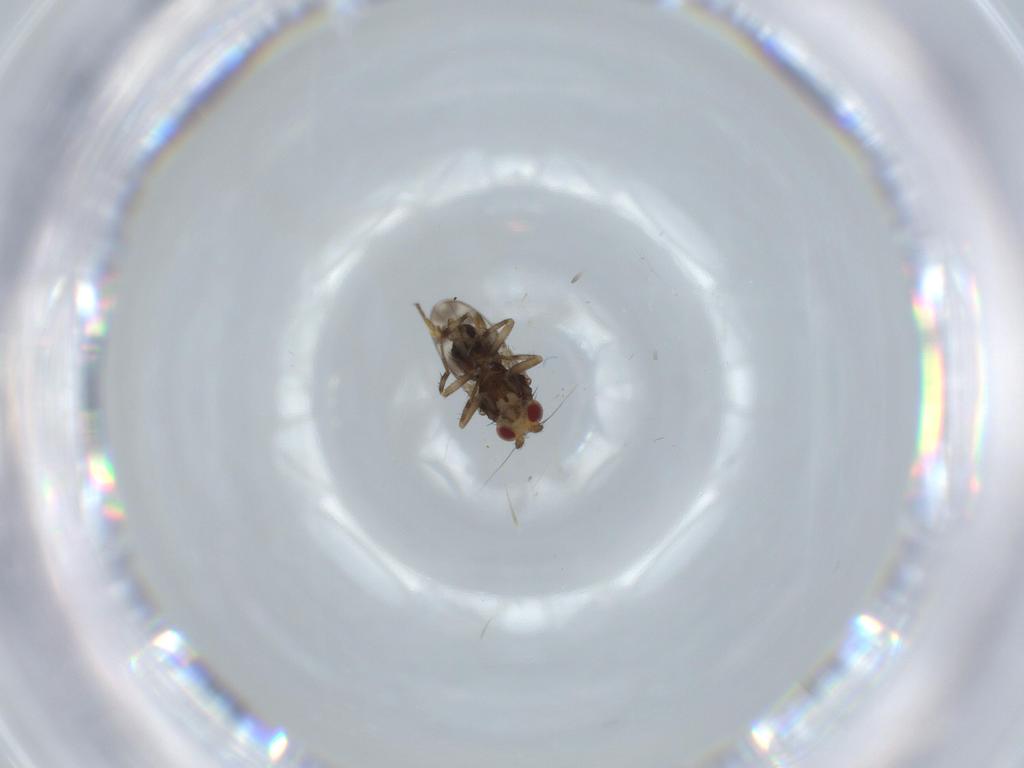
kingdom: Animalia
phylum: Arthropoda
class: Insecta
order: Diptera
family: Sphaeroceridae
